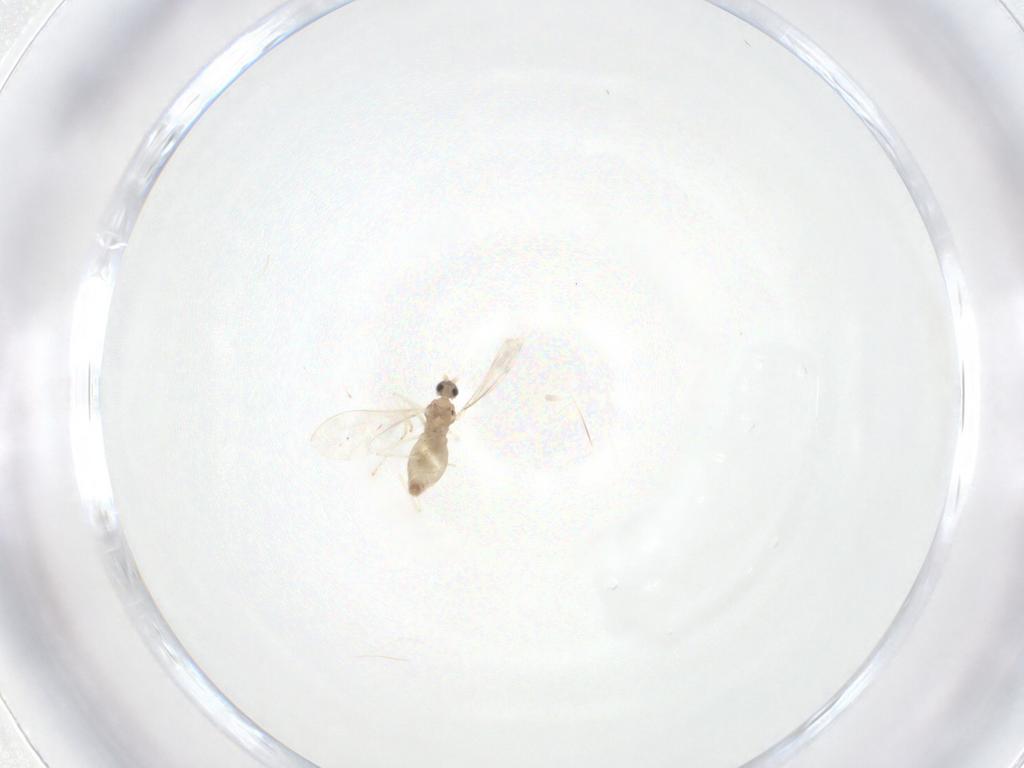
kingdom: Animalia
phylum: Arthropoda
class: Insecta
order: Diptera
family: Cecidomyiidae
